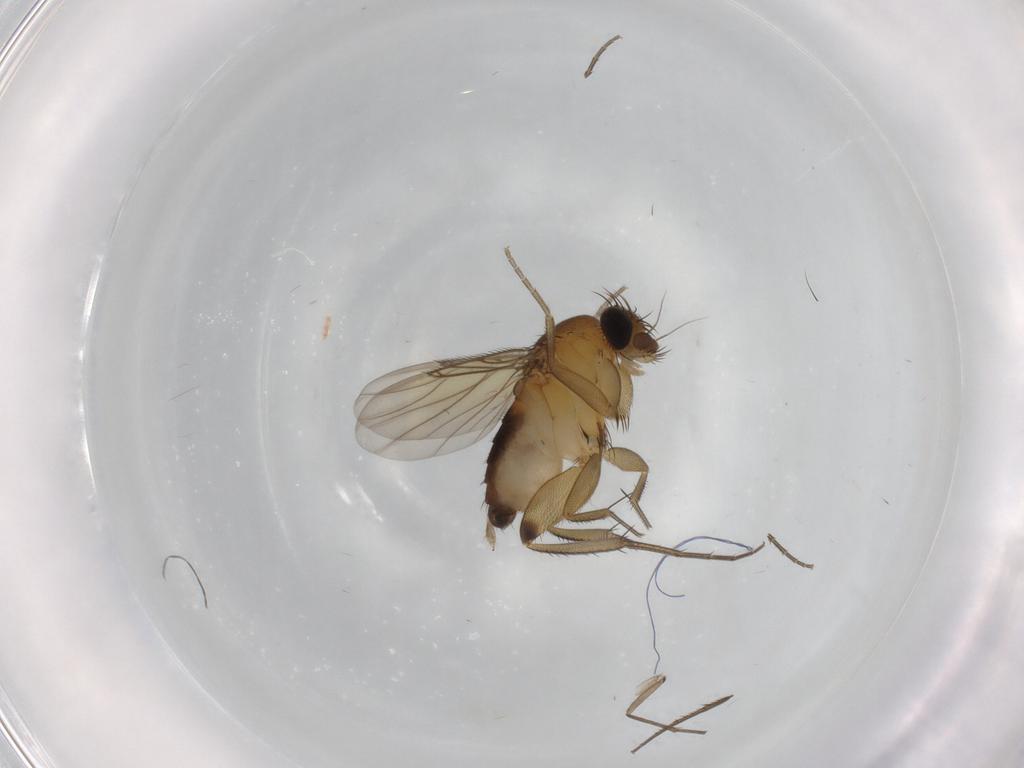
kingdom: Animalia
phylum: Arthropoda
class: Insecta
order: Diptera
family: Phoridae
